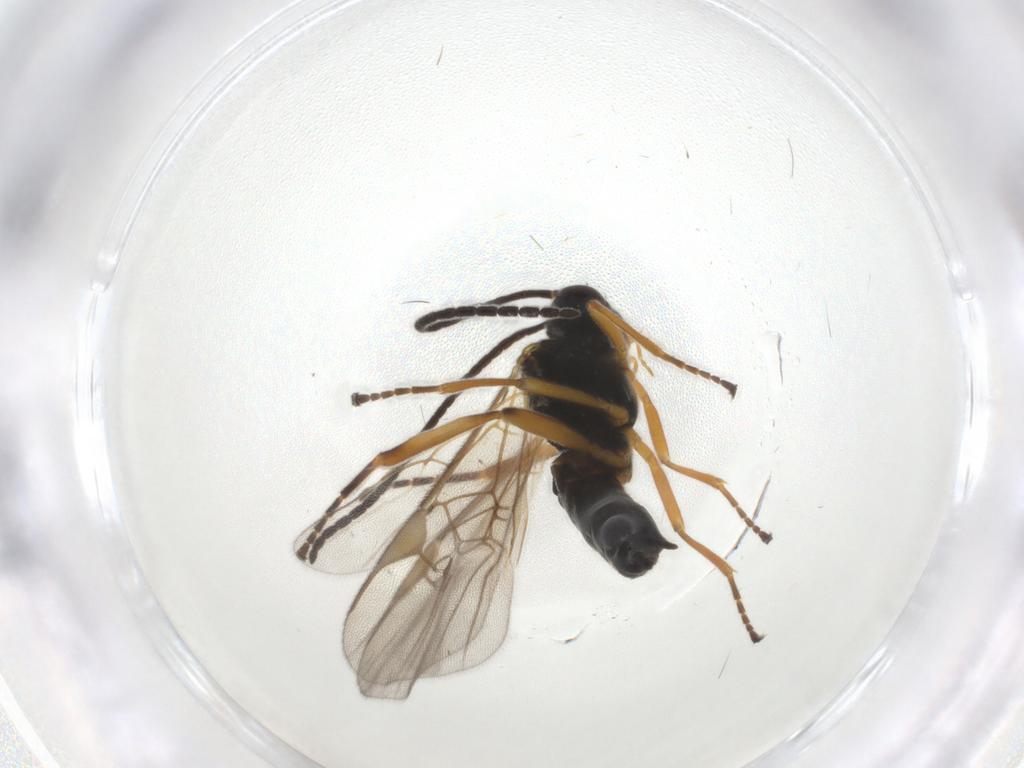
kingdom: Animalia
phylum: Arthropoda
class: Insecta
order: Hymenoptera
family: Braconidae
